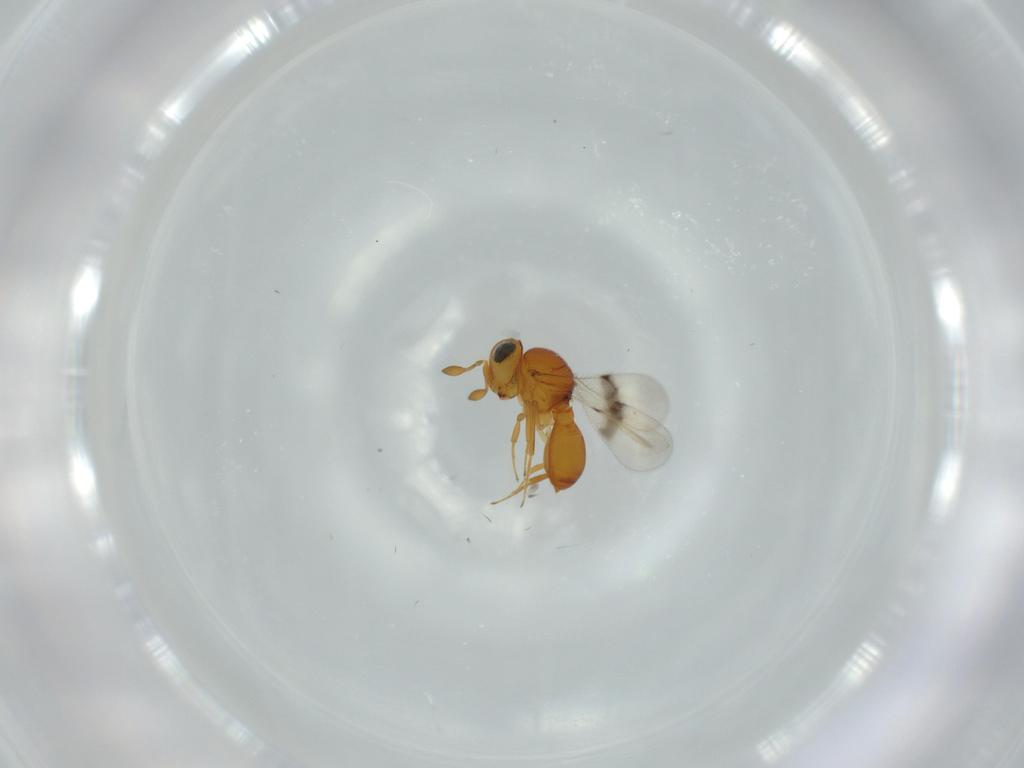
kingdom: Animalia
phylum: Arthropoda
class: Insecta
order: Hymenoptera
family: Scelionidae
